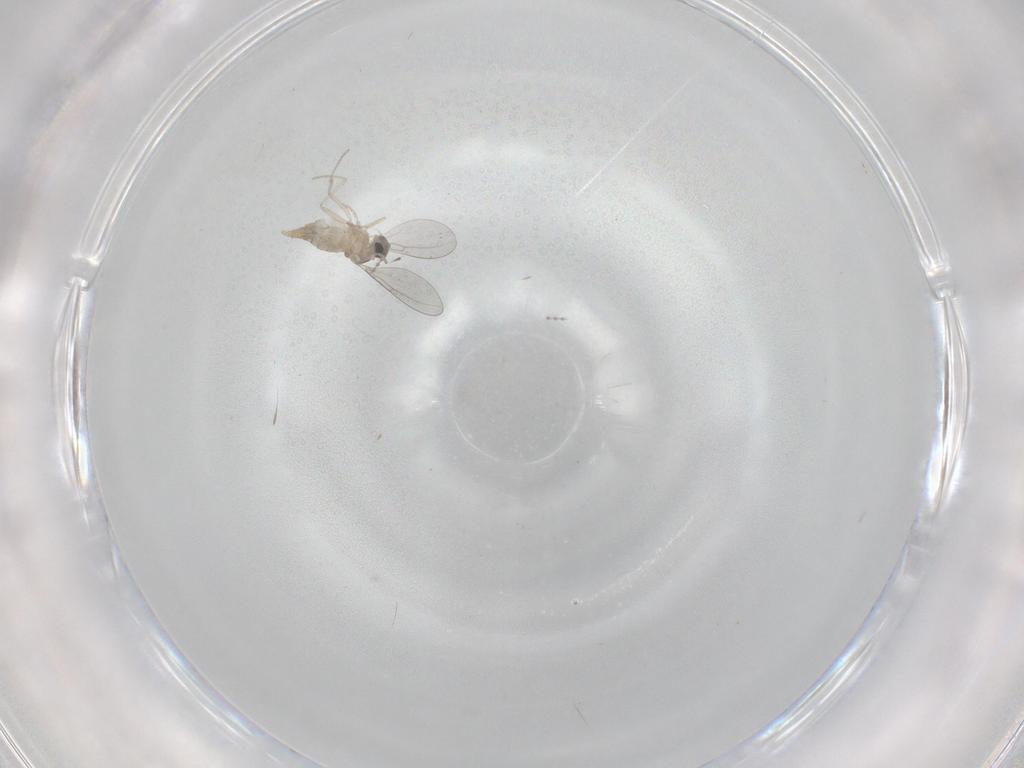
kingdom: Animalia
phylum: Arthropoda
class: Insecta
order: Diptera
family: Cecidomyiidae
